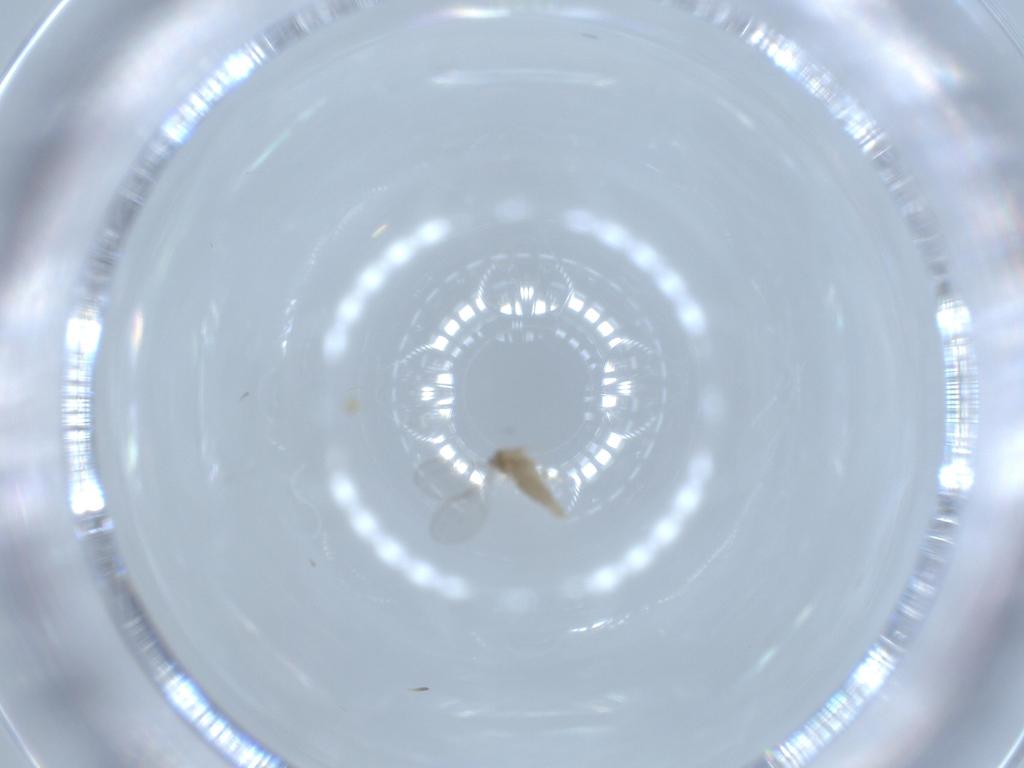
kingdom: Animalia
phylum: Arthropoda
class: Insecta
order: Diptera
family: Cecidomyiidae
